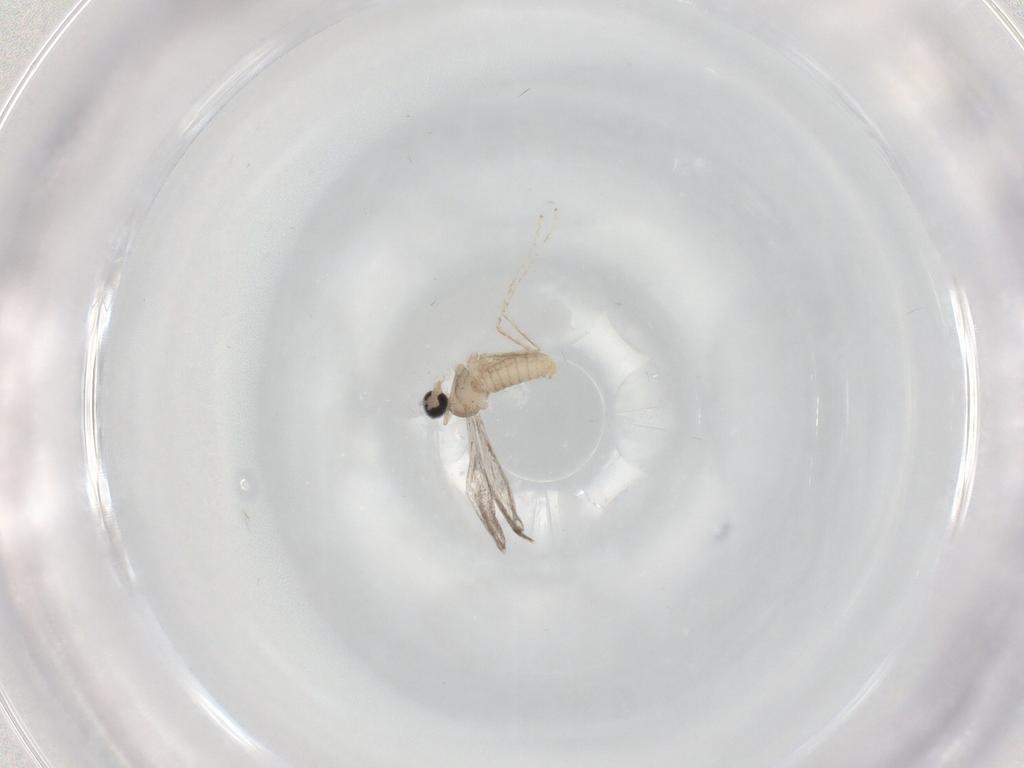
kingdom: Animalia
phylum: Arthropoda
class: Insecta
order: Diptera
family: Cecidomyiidae
